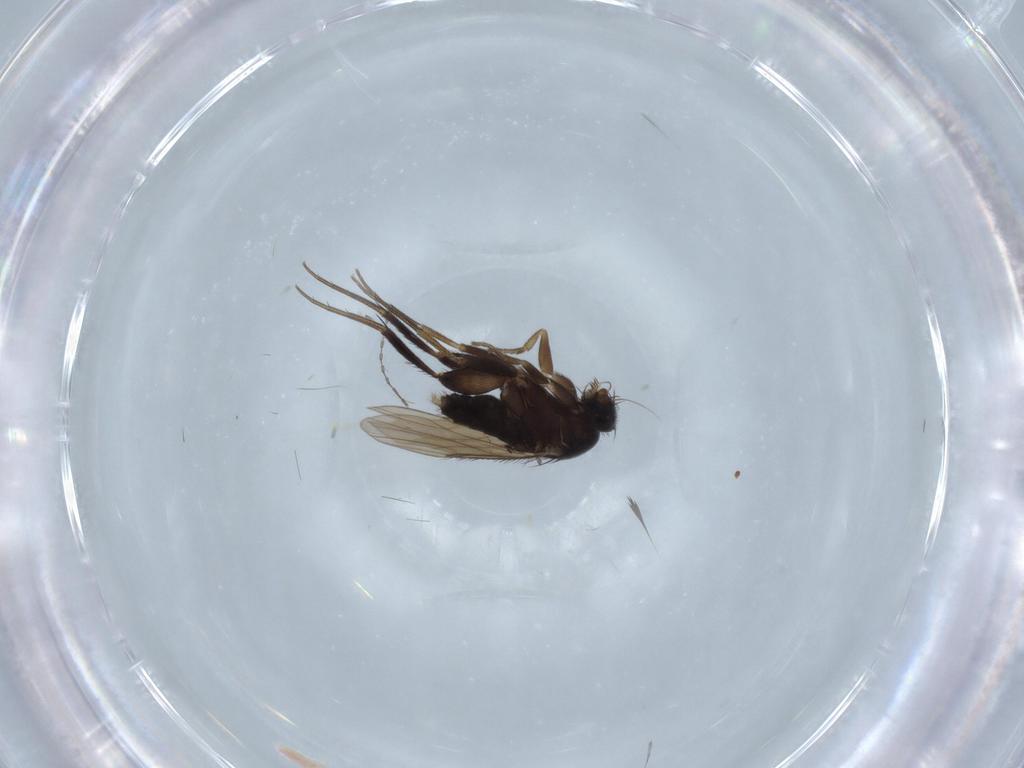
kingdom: Animalia
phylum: Arthropoda
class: Insecta
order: Diptera
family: Phoridae
